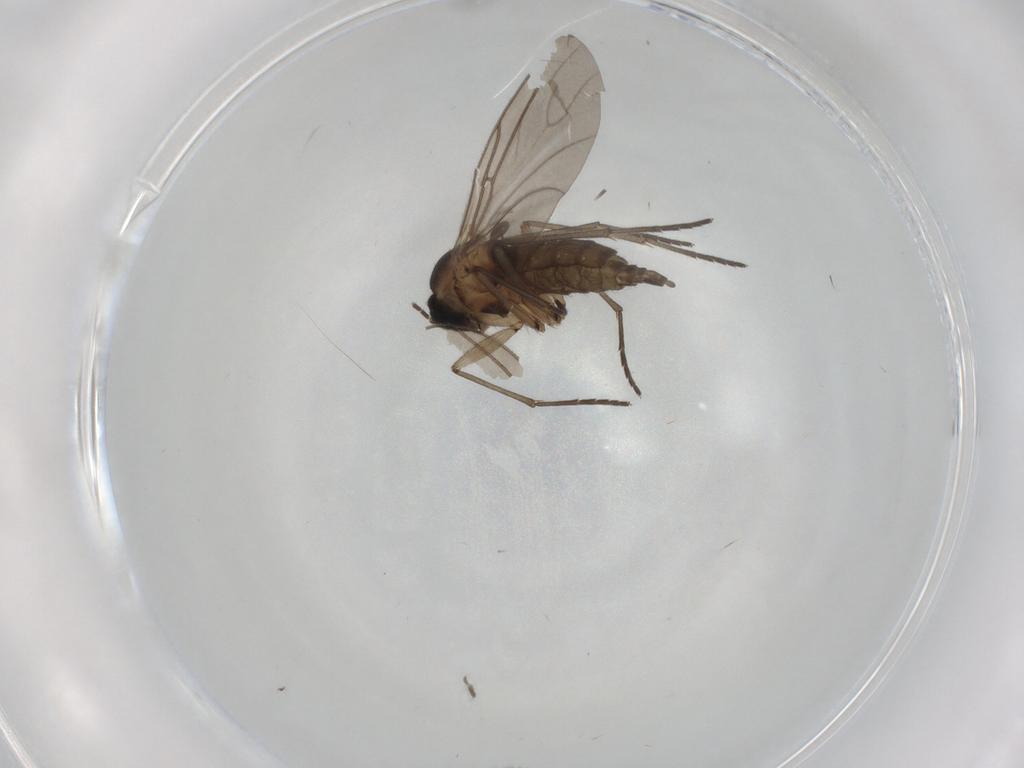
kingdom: Animalia
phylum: Arthropoda
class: Insecta
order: Diptera
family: Sciaridae
